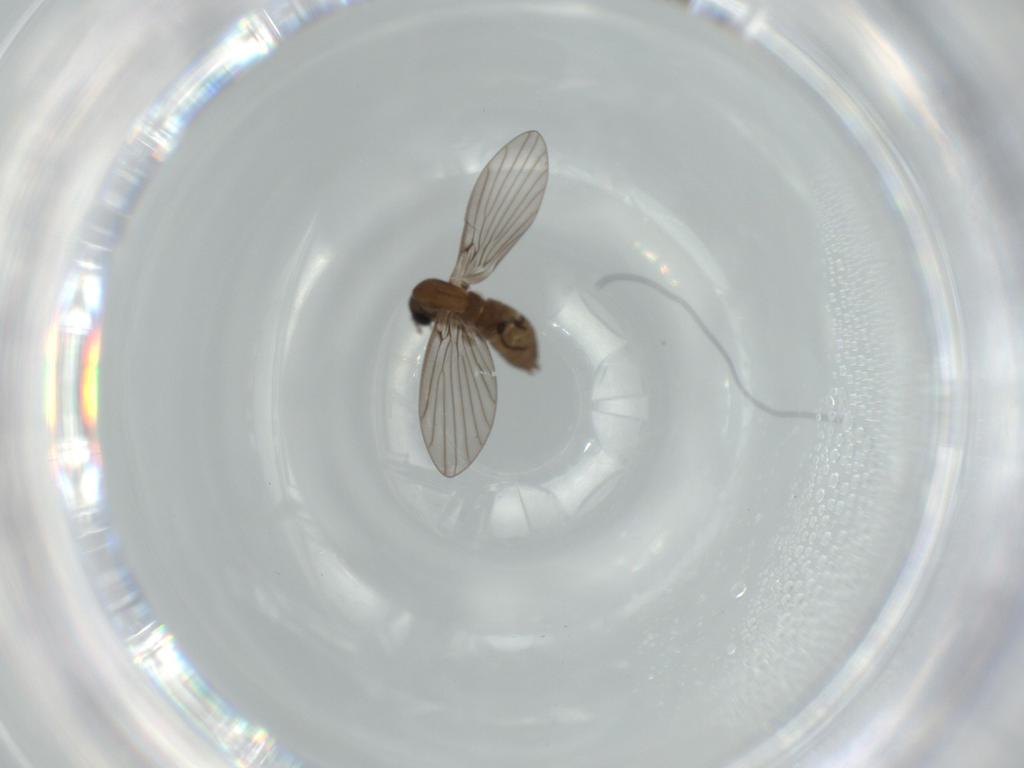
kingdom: Animalia
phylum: Arthropoda
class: Insecta
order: Diptera
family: Psychodidae
